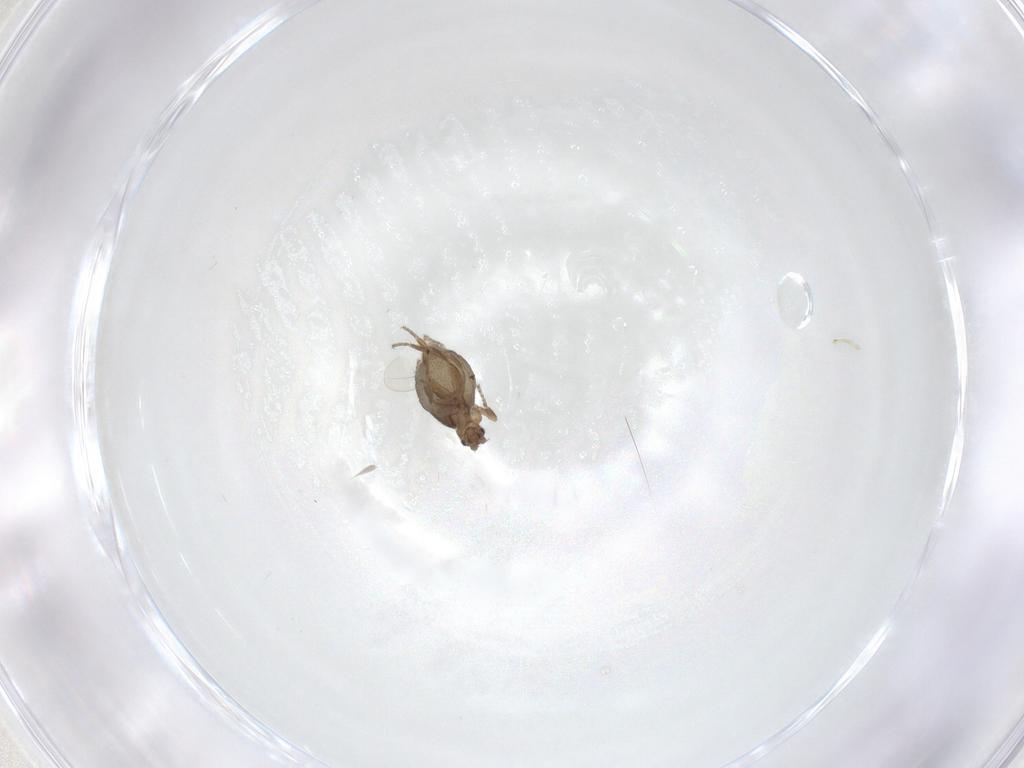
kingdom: Animalia
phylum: Arthropoda
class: Insecta
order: Diptera
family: Phoridae
